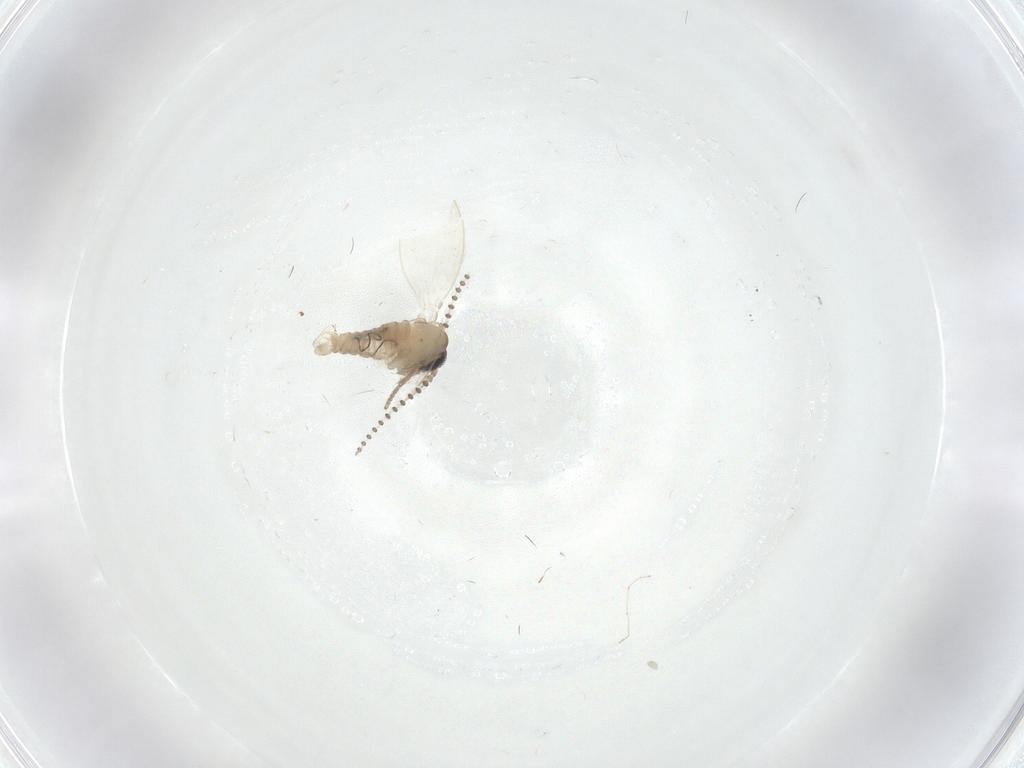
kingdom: Animalia
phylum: Arthropoda
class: Insecta
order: Diptera
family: Psychodidae
